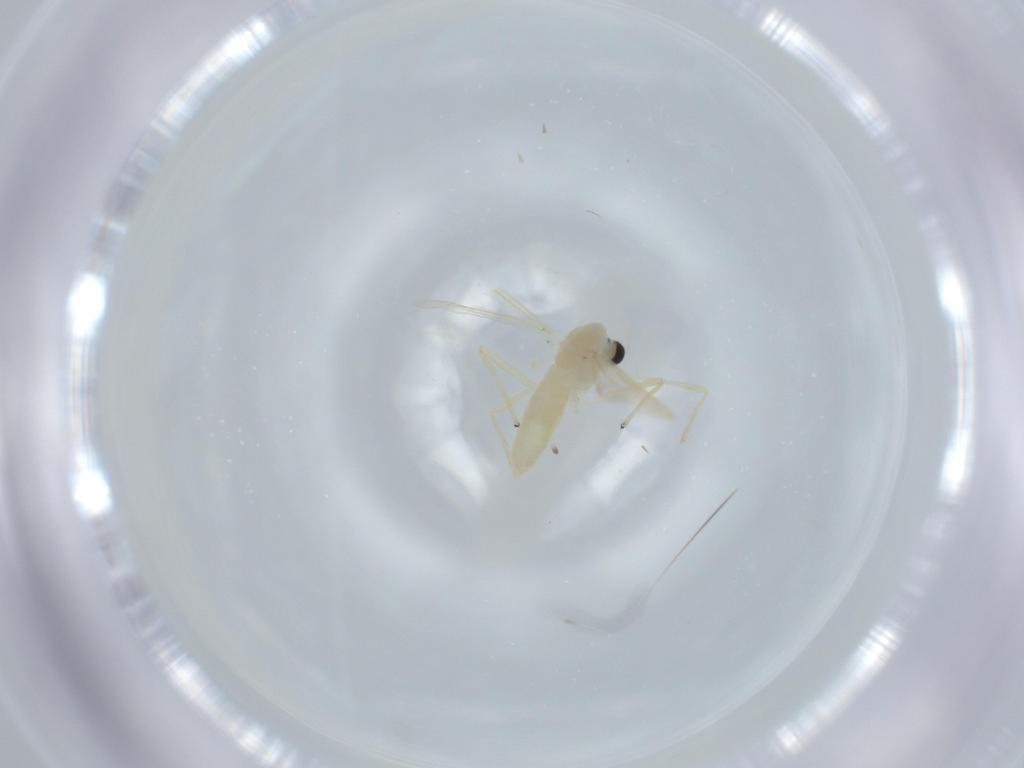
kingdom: Animalia
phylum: Arthropoda
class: Insecta
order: Diptera
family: Chironomidae
